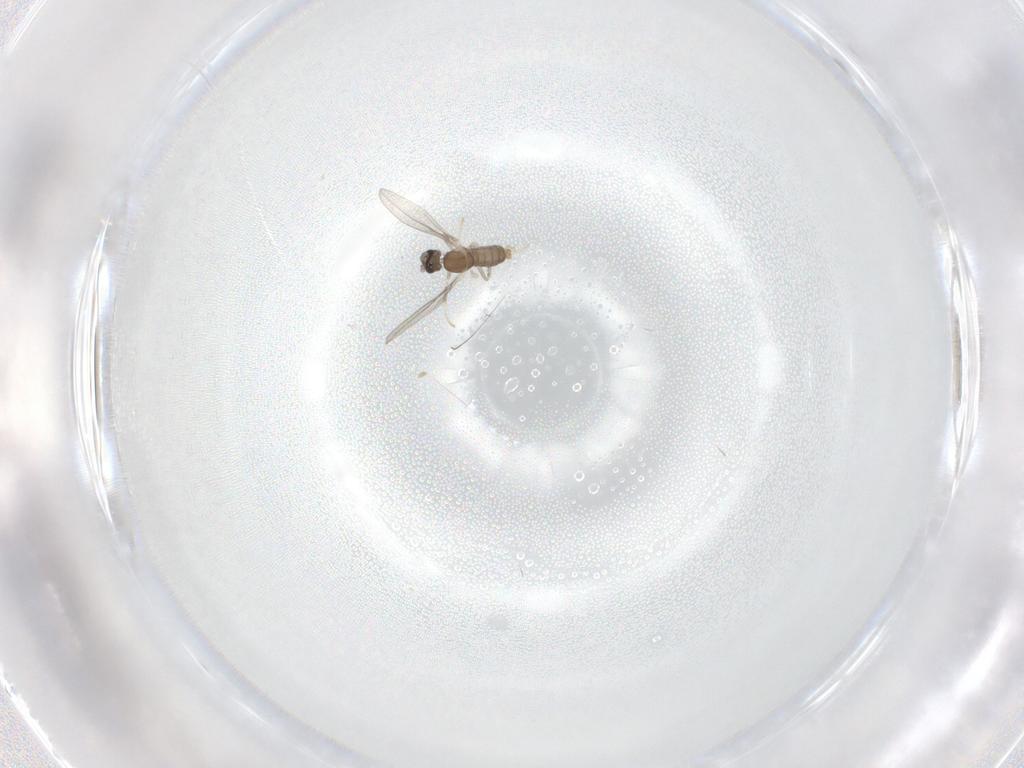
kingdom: Animalia
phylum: Arthropoda
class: Insecta
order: Diptera
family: Cecidomyiidae
